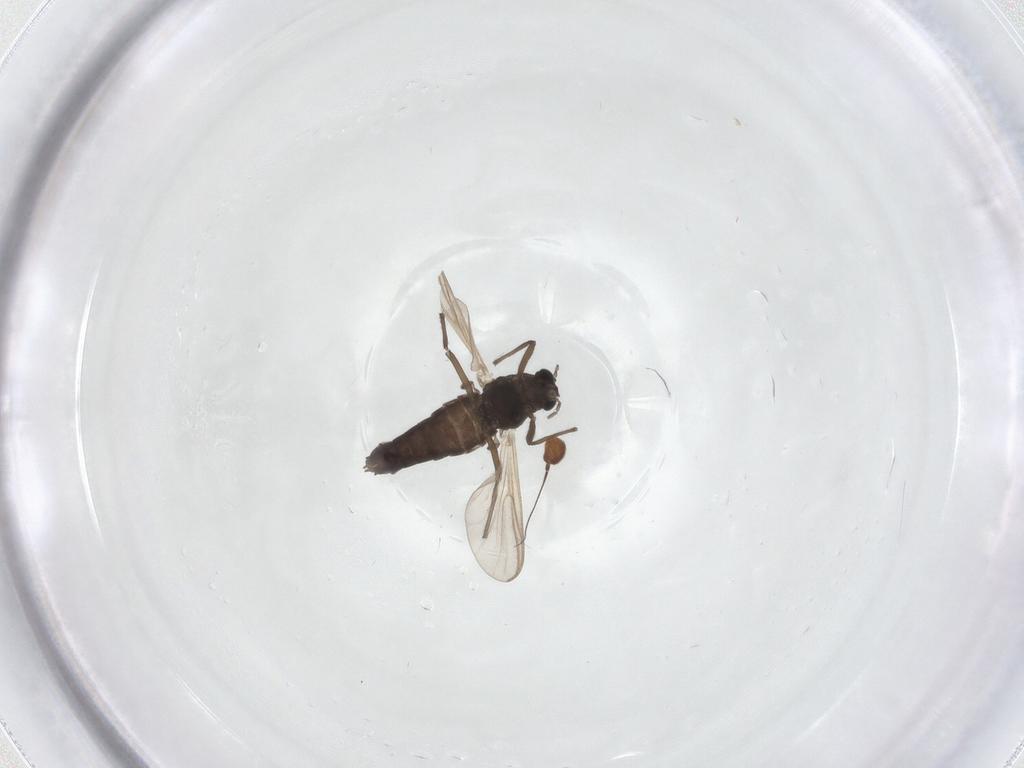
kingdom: Animalia
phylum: Arthropoda
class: Insecta
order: Diptera
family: Heleomyzidae
